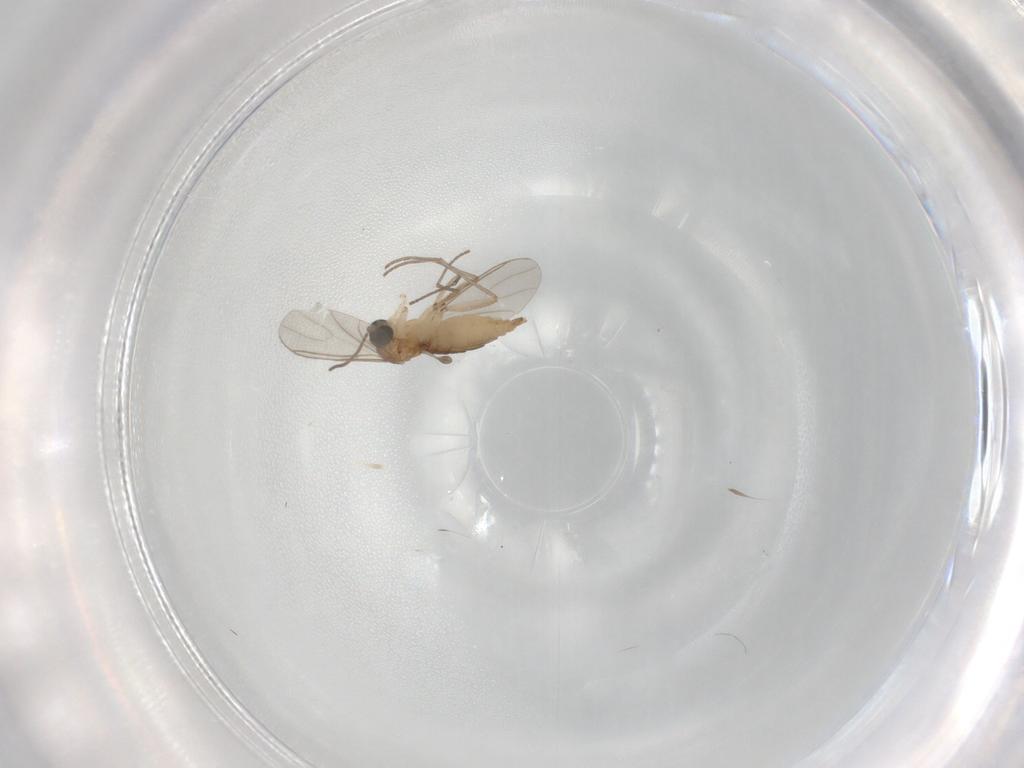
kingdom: Animalia
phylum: Arthropoda
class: Insecta
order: Diptera
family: Sciaridae
